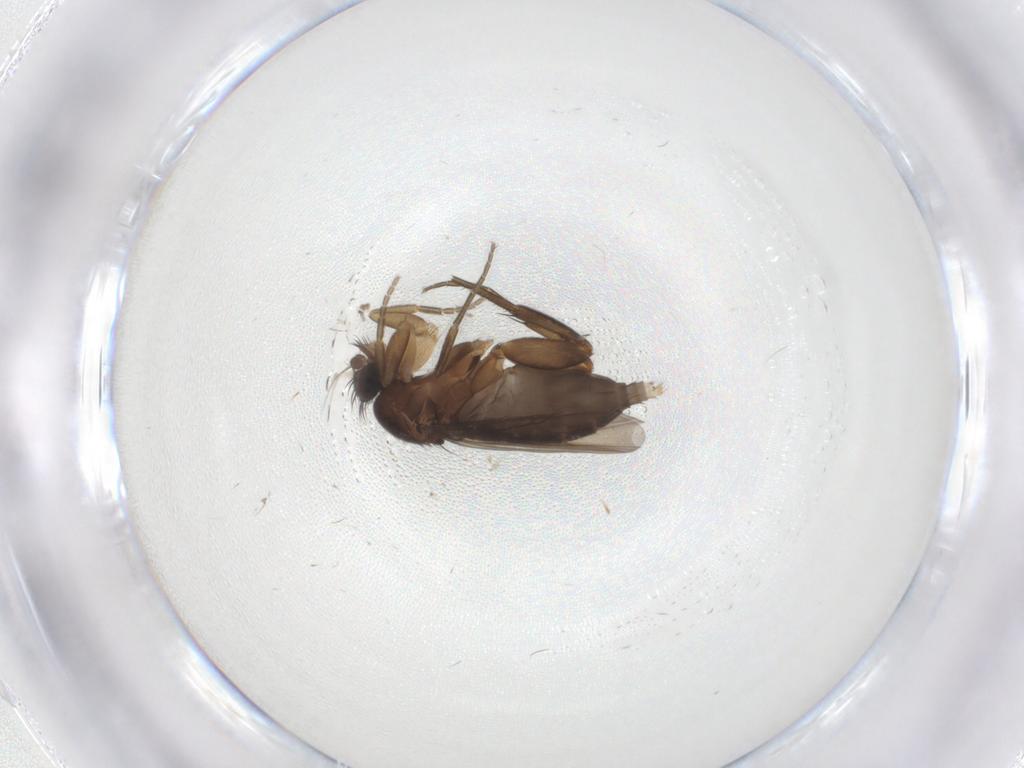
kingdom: Animalia
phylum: Arthropoda
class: Insecta
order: Diptera
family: Phoridae
